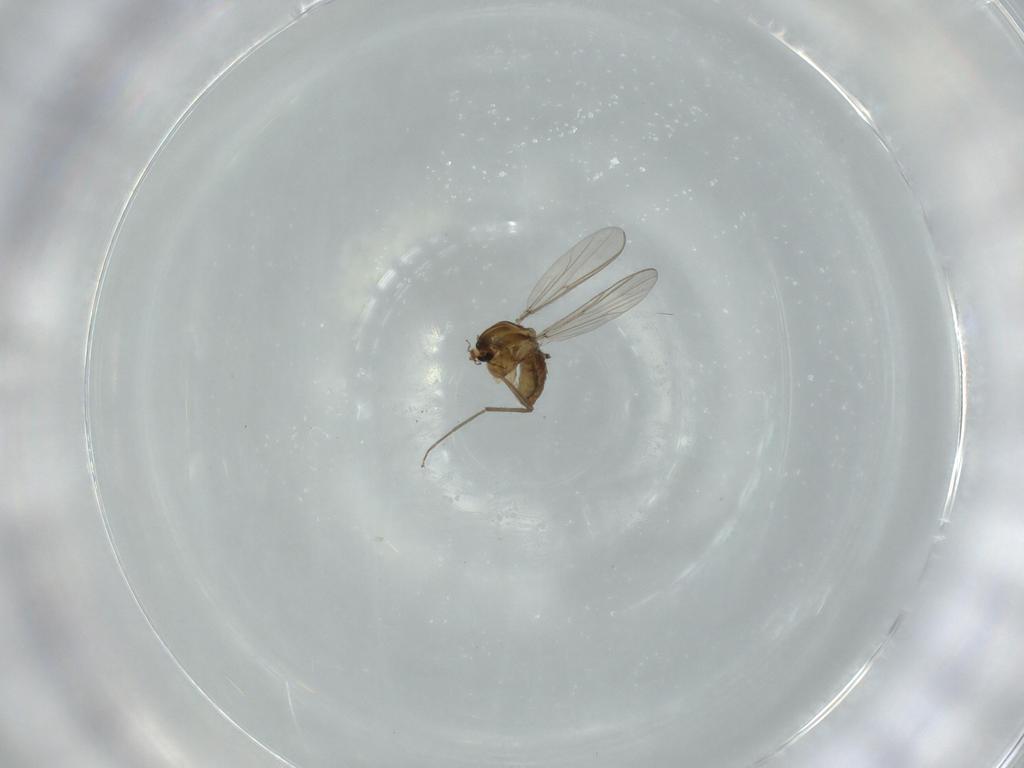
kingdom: Animalia
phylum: Arthropoda
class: Insecta
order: Diptera
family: Chironomidae
